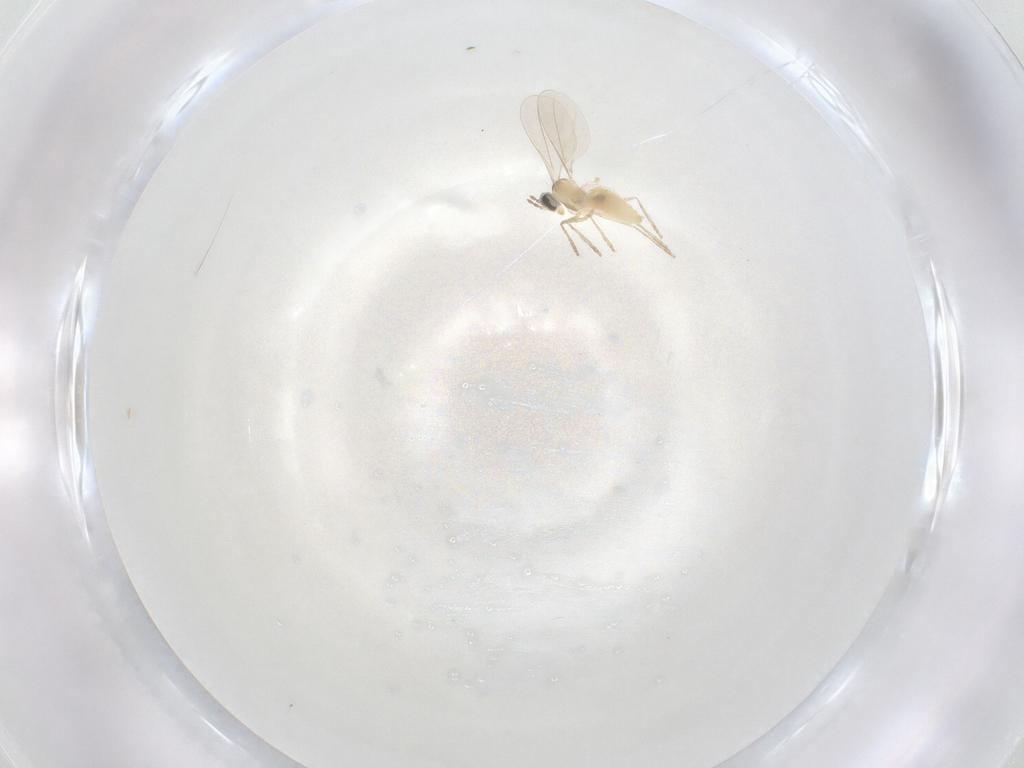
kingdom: Animalia
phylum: Arthropoda
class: Insecta
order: Diptera
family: Cecidomyiidae
